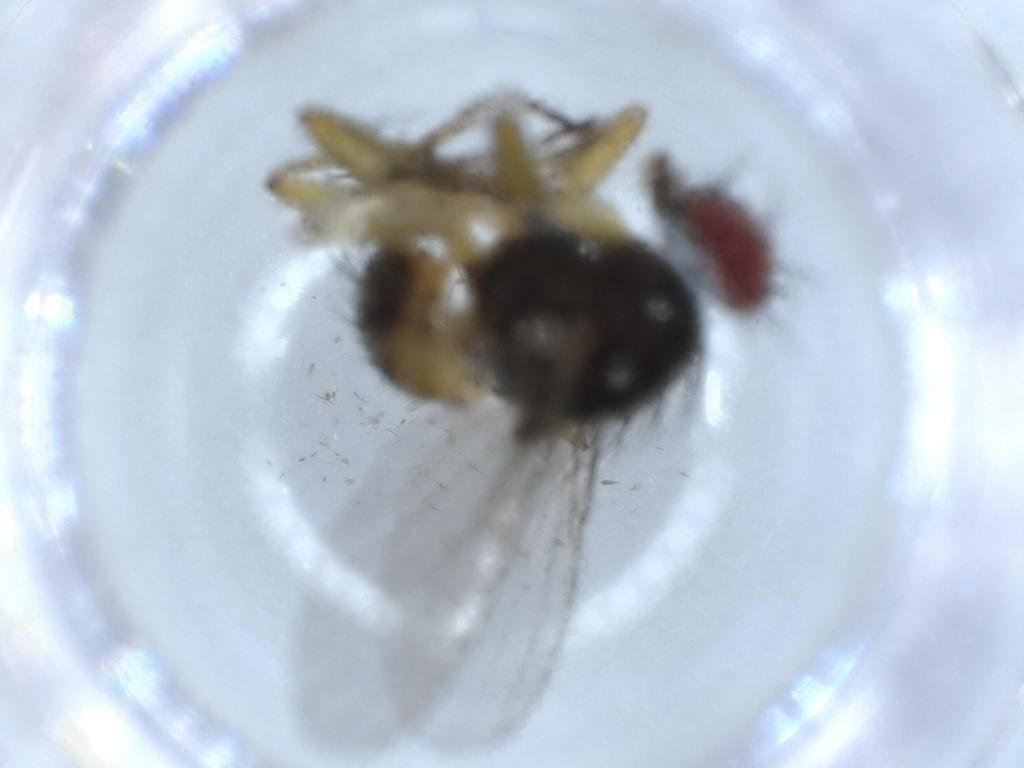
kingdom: Animalia
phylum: Arthropoda
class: Insecta
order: Diptera
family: Muscidae
